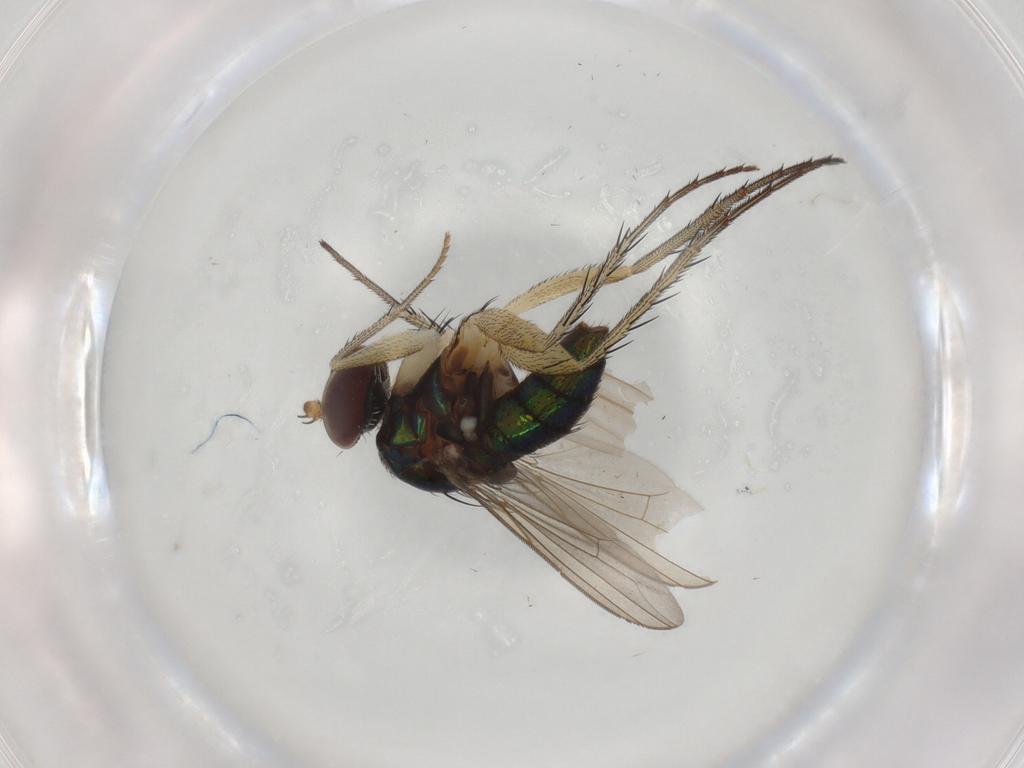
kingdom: Animalia
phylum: Arthropoda
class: Insecta
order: Diptera
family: Dolichopodidae
